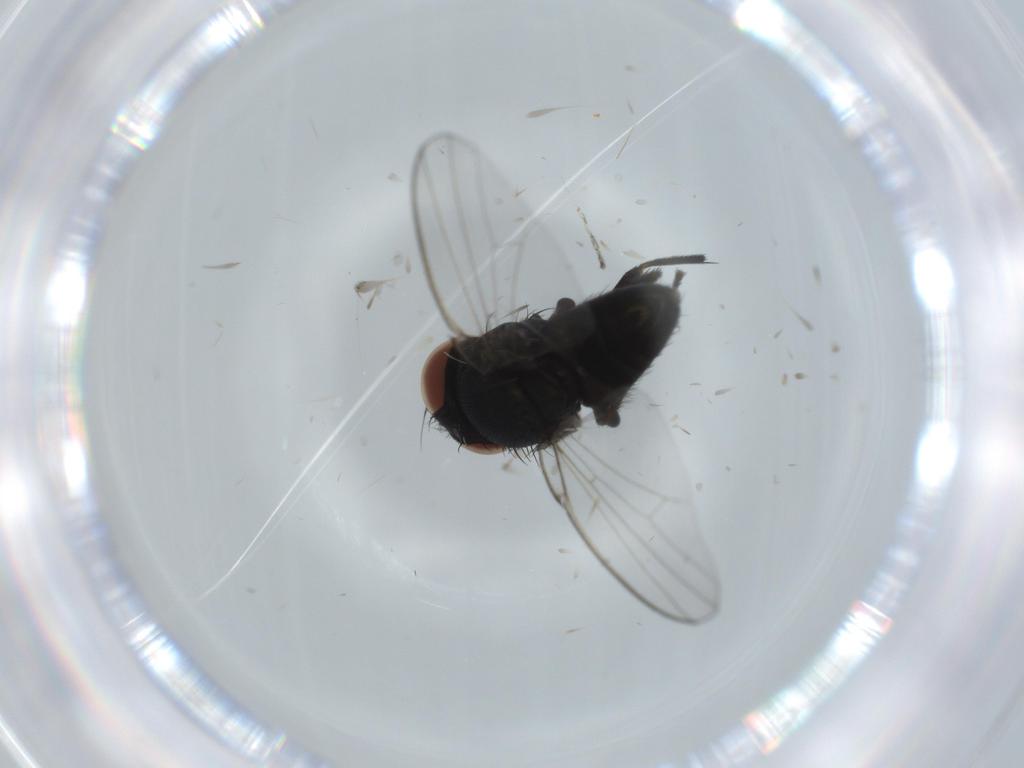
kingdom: Animalia
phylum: Arthropoda
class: Insecta
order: Diptera
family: Milichiidae
